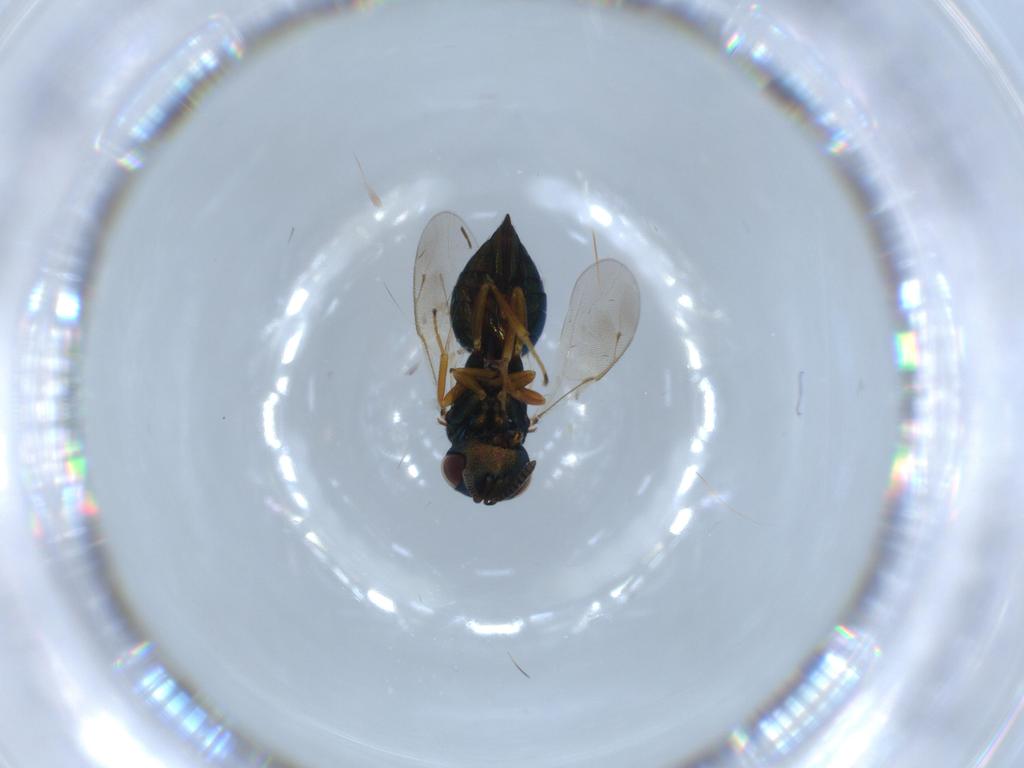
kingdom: Animalia
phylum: Arthropoda
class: Insecta
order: Hymenoptera
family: Pteromalidae
